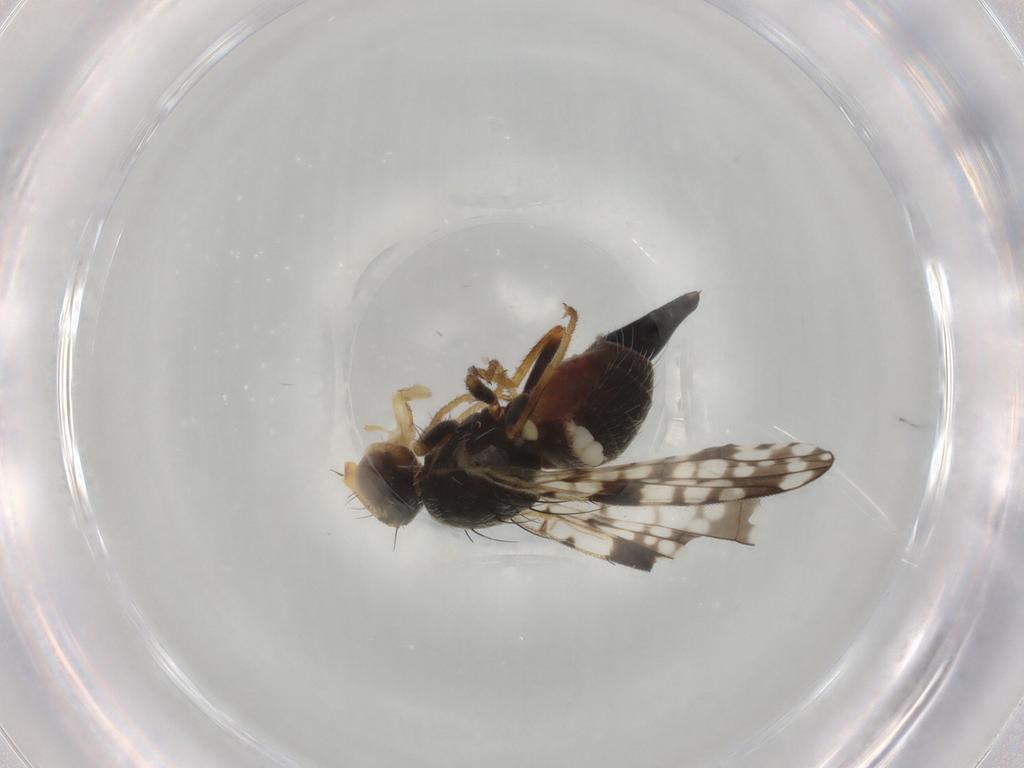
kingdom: Animalia
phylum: Arthropoda
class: Insecta
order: Diptera
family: Tephritidae
